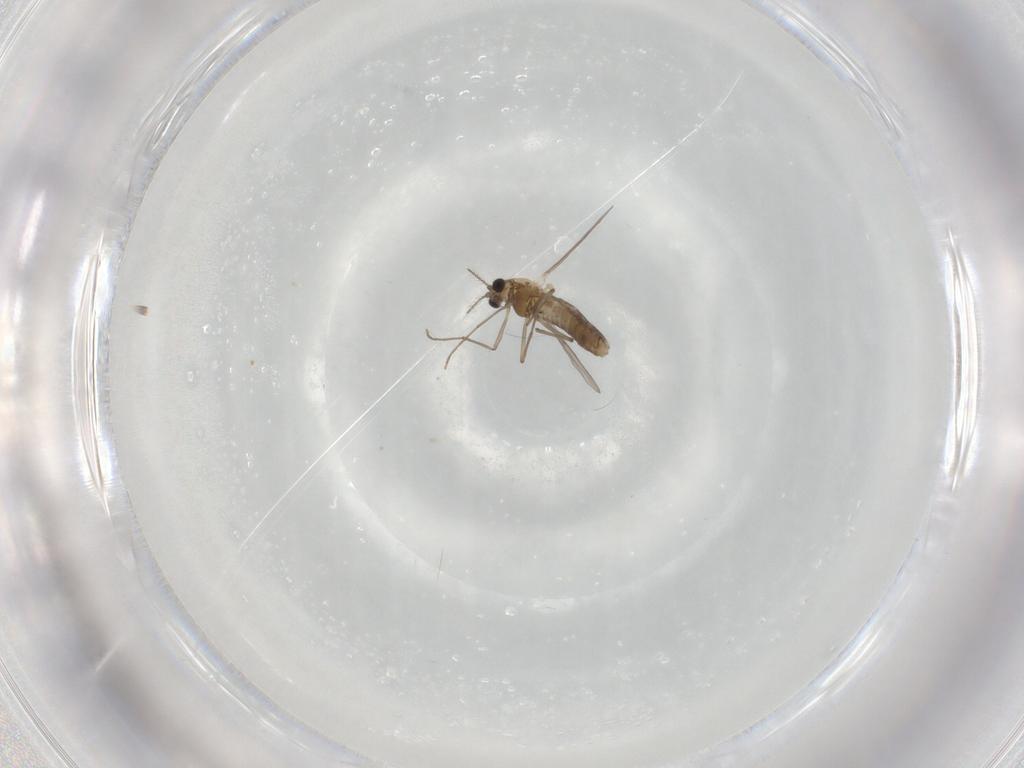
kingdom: Animalia
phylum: Arthropoda
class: Insecta
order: Diptera
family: Chironomidae
